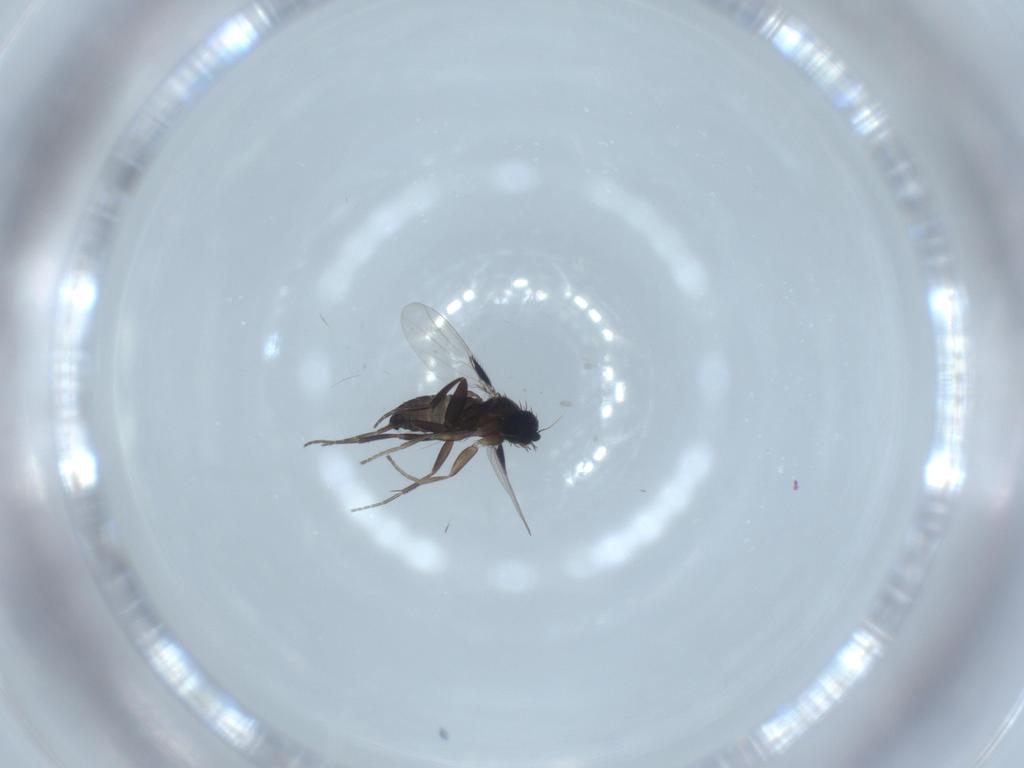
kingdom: Animalia
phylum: Arthropoda
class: Insecta
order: Diptera
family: Phoridae
